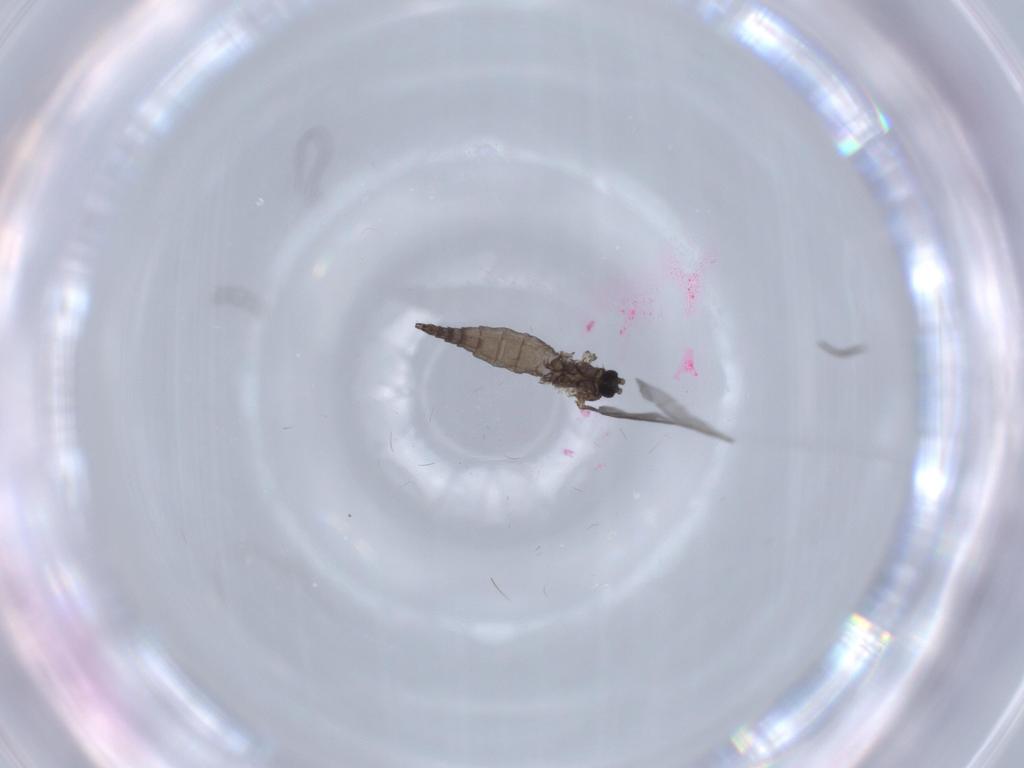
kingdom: Animalia
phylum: Arthropoda
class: Insecta
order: Diptera
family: Sciaridae
